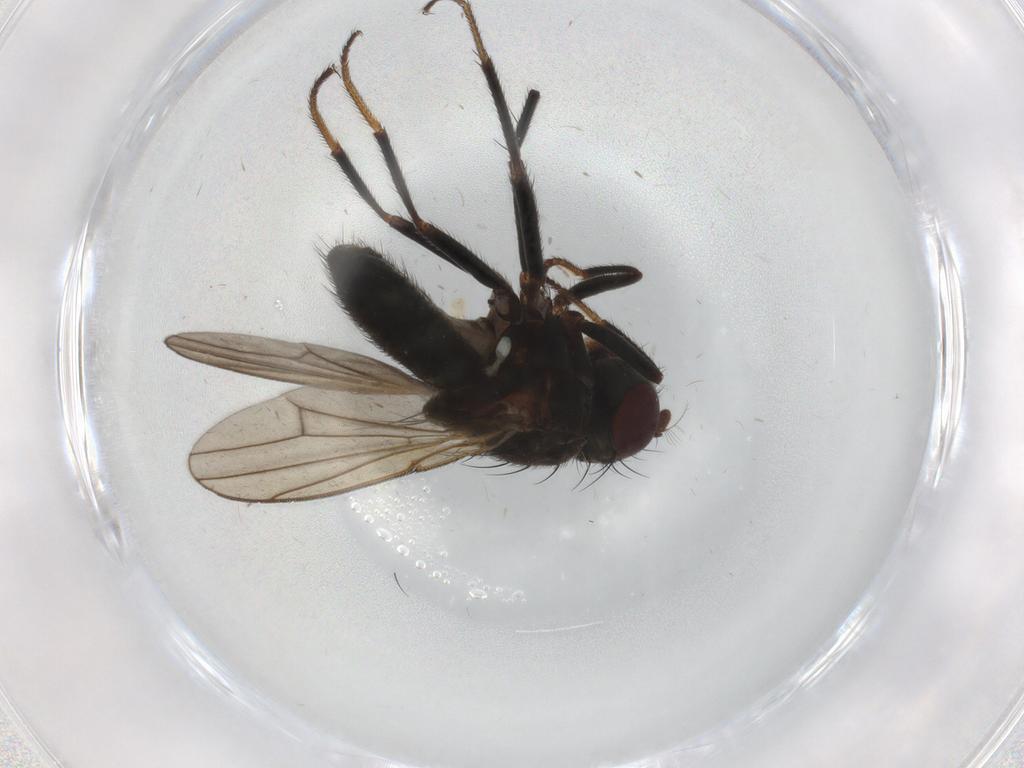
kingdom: Animalia
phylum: Arthropoda
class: Insecta
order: Diptera
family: Ephydridae
